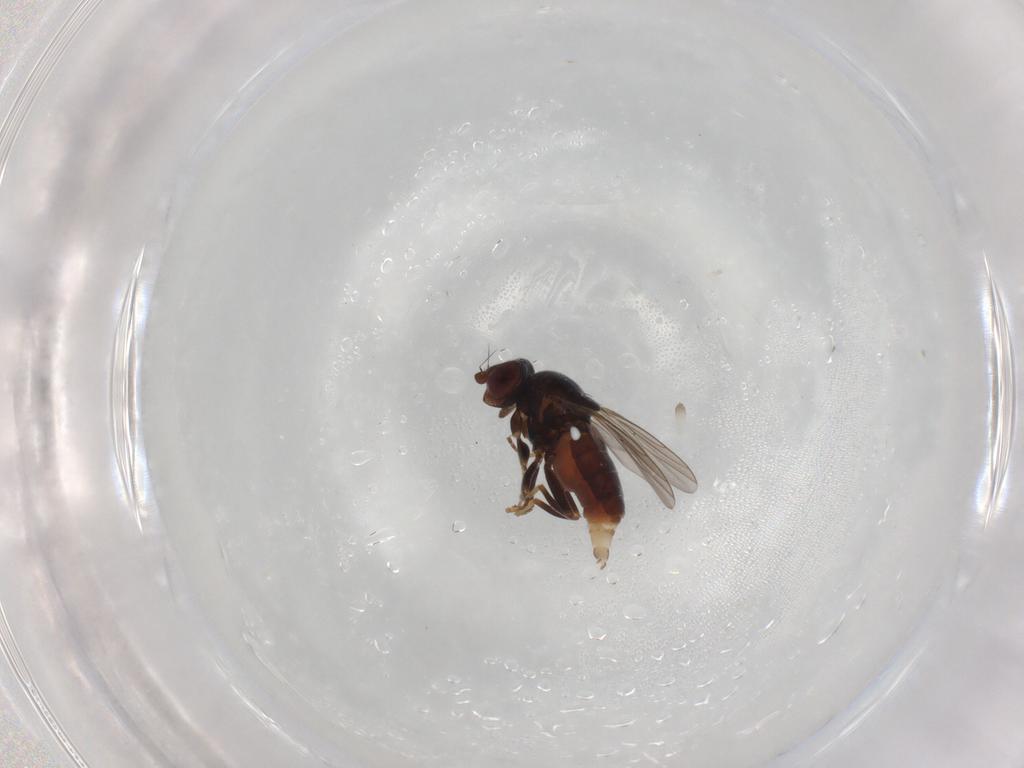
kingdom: Animalia
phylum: Arthropoda
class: Insecta
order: Diptera
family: Chloropidae
